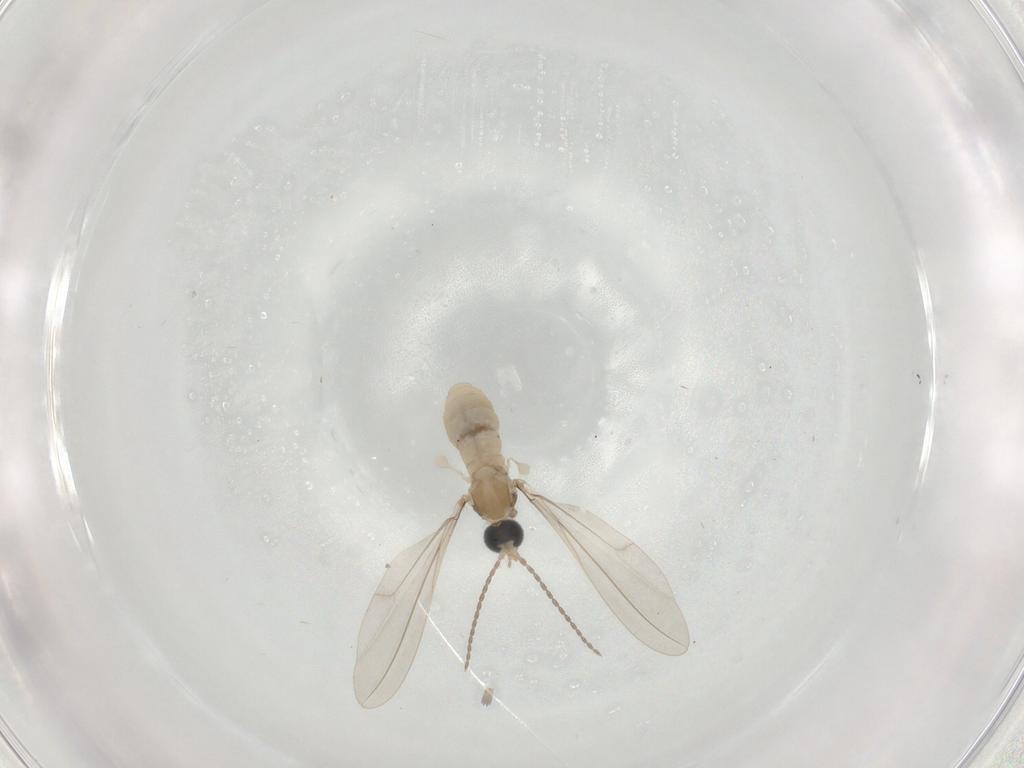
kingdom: Animalia
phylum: Arthropoda
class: Insecta
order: Diptera
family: Cecidomyiidae
